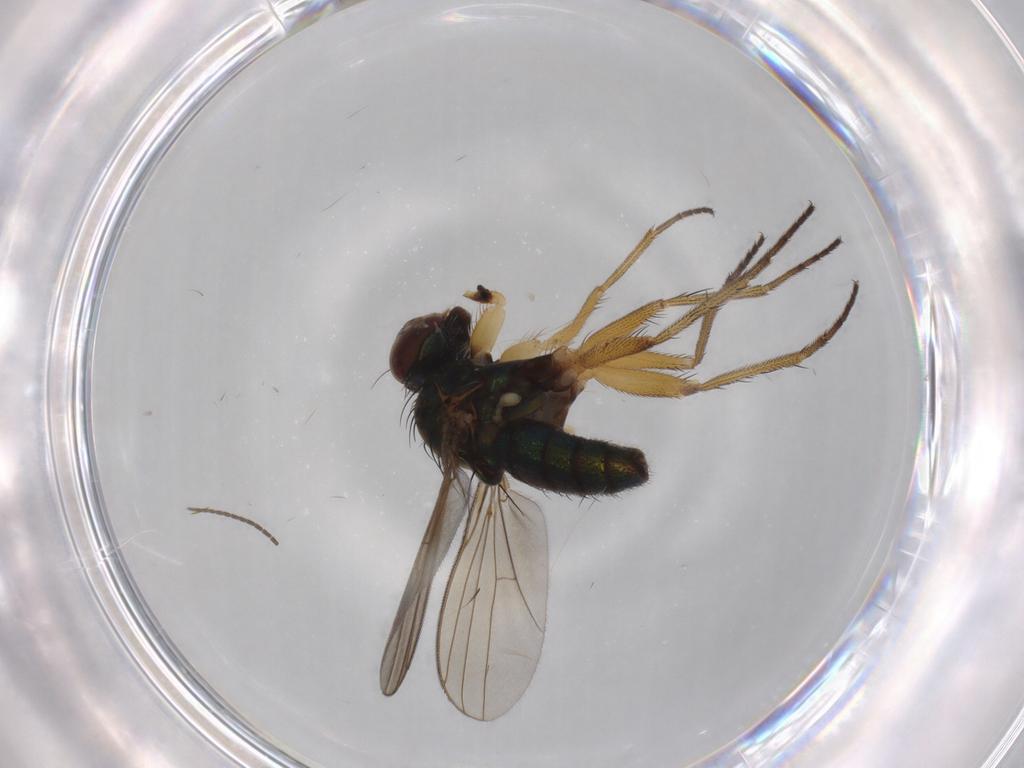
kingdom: Animalia
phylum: Arthropoda
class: Insecta
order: Diptera
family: Dolichopodidae
